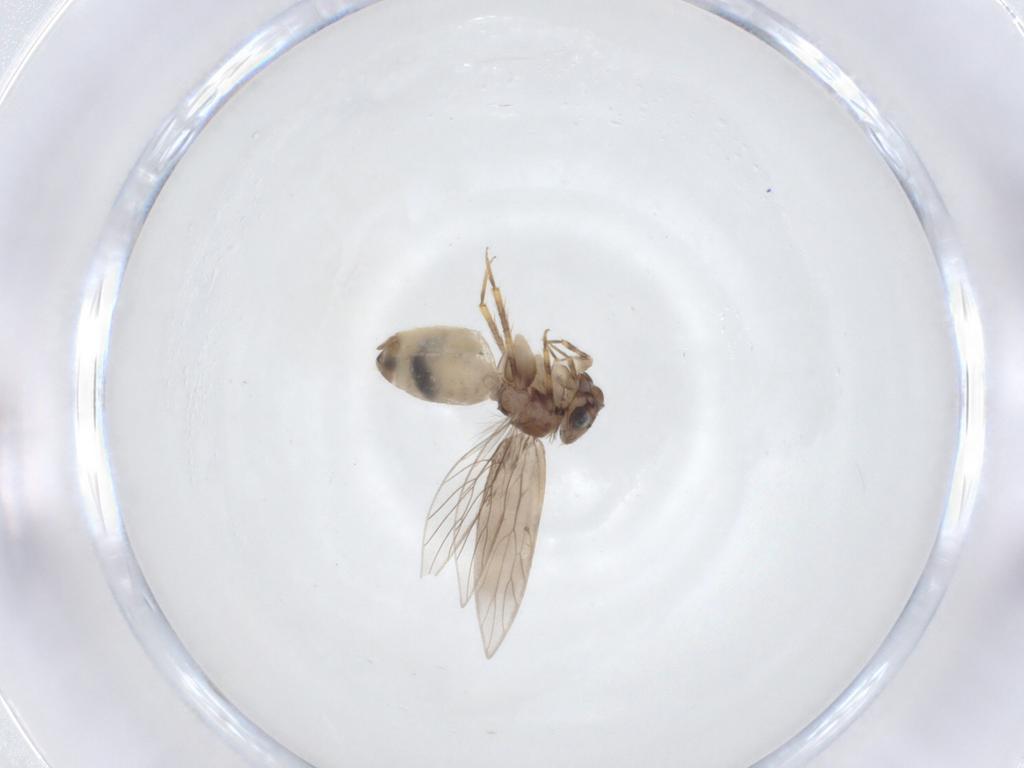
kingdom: Animalia
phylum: Arthropoda
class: Insecta
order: Psocodea
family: Lepidopsocidae
